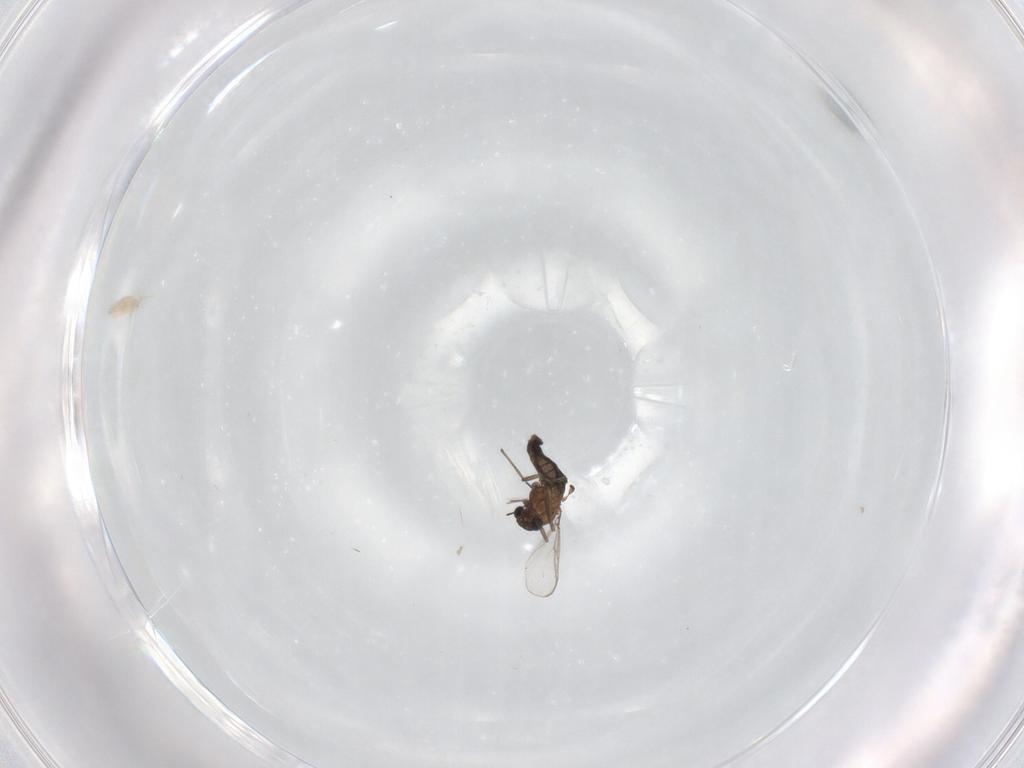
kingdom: Animalia
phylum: Arthropoda
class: Insecta
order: Diptera
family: Chironomidae
